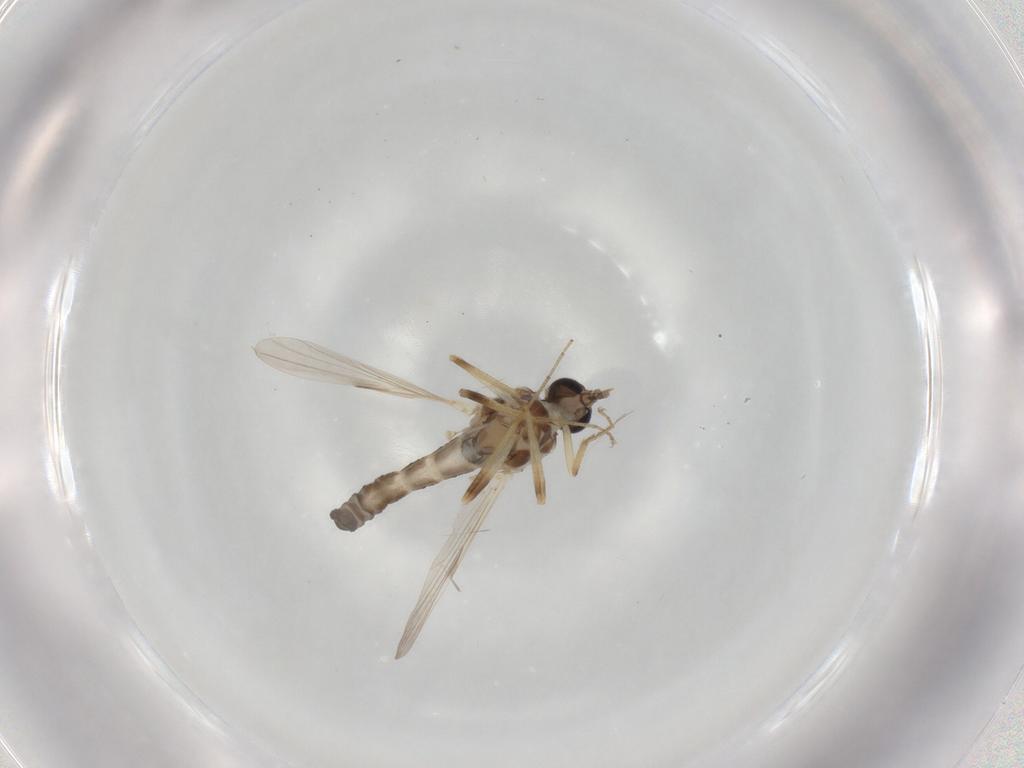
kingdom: Animalia
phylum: Arthropoda
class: Insecta
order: Diptera
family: Ceratopogonidae
